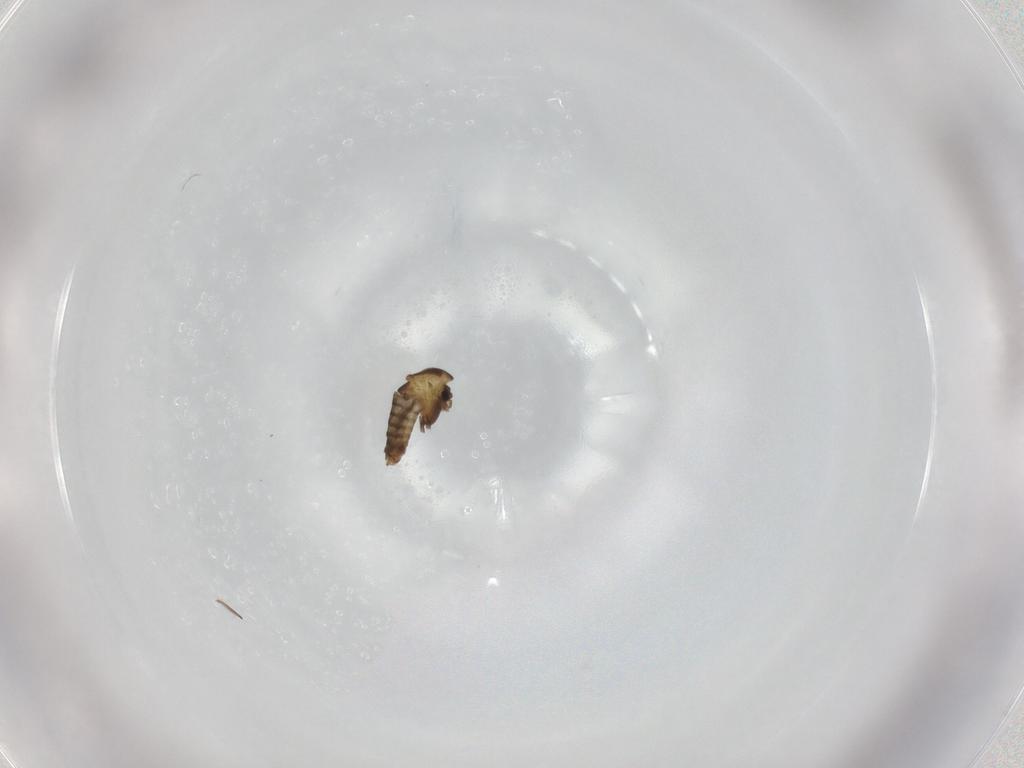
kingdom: Animalia
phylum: Arthropoda
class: Insecta
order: Diptera
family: Chironomidae
